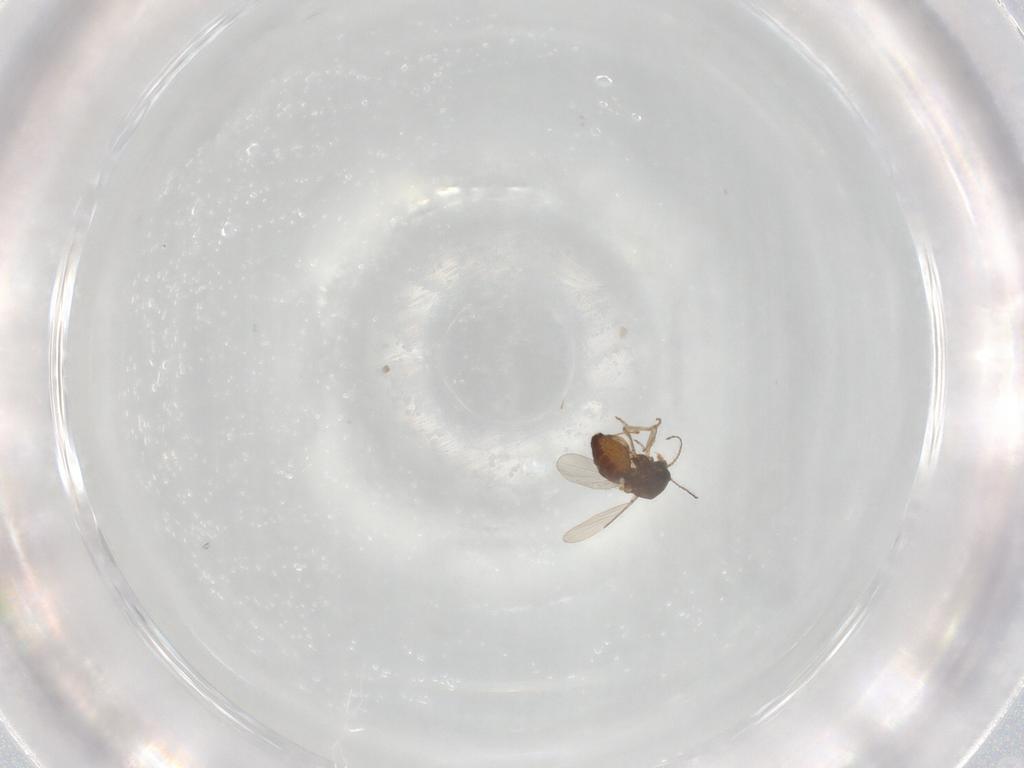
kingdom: Animalia
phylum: Arthropoda
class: Insecta
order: Diptera
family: Ceratopogonidae
